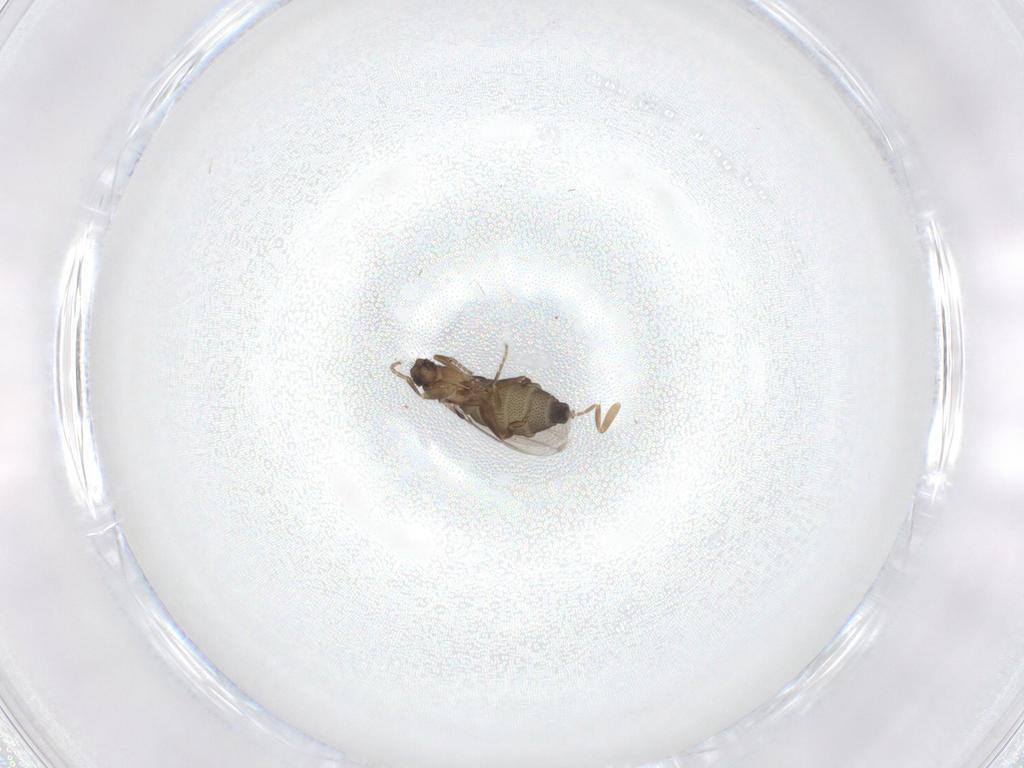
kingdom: Animalia
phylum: Arthropoda
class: Insecta
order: Diptera
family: Phoridae
